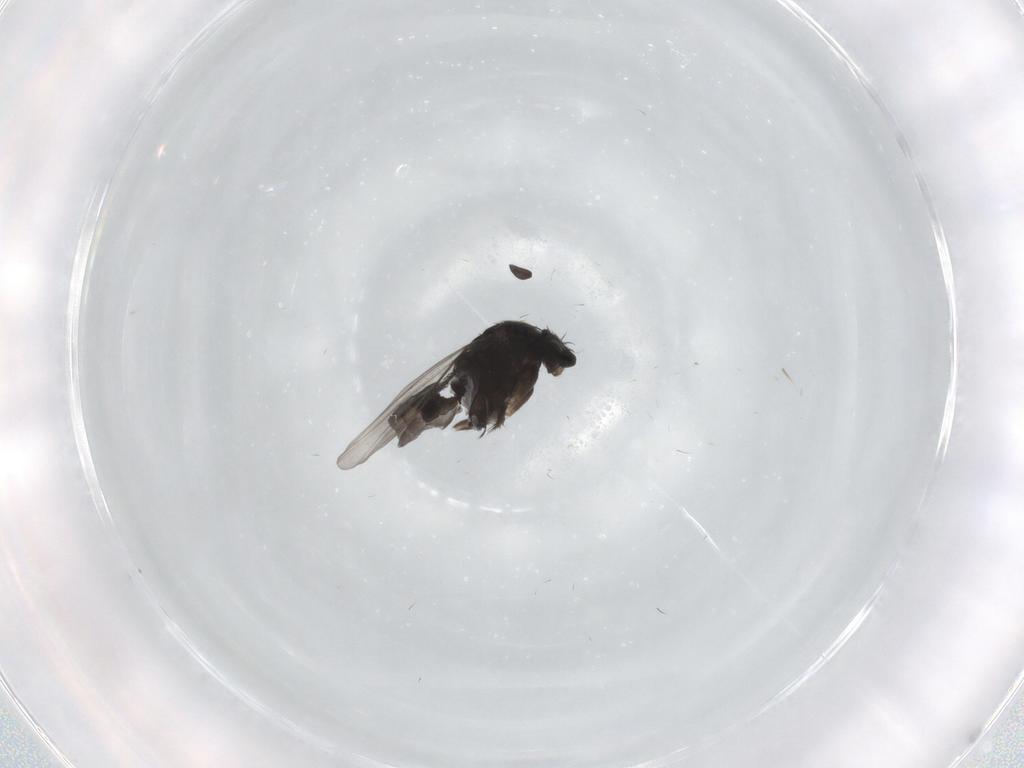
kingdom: Animalia
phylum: Arthropoda
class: Insecta
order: Diptera
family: Phoridae
